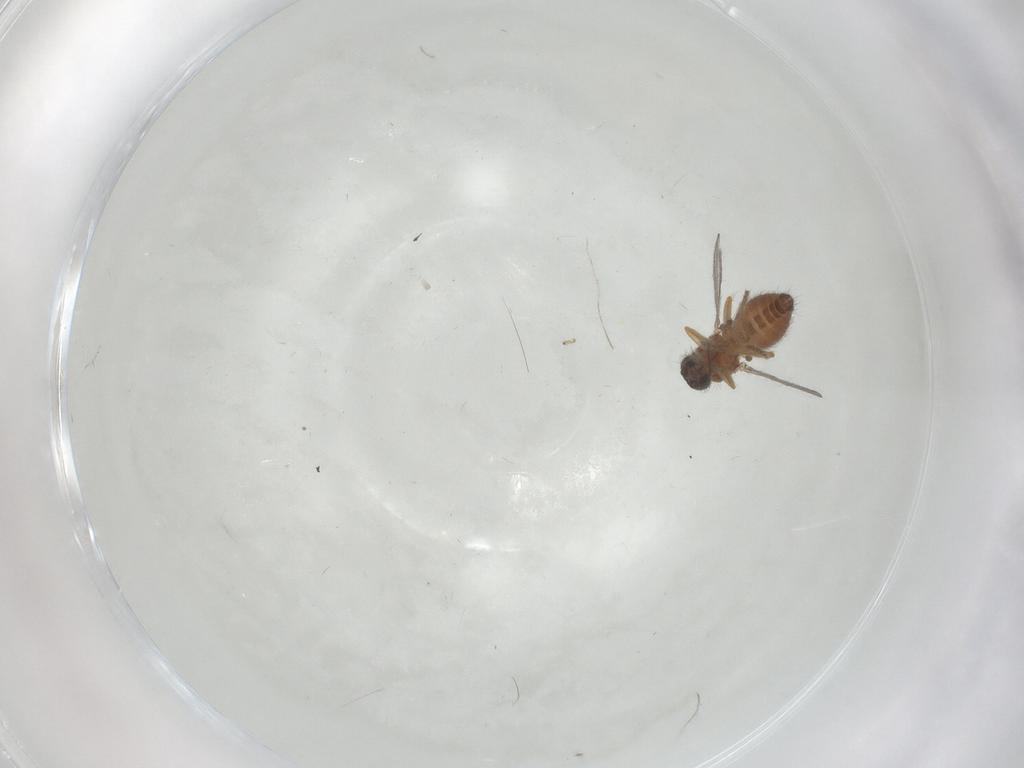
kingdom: Animalia
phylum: Arthropoda
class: Insecta
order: Diptera
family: Ceratopogonidae
